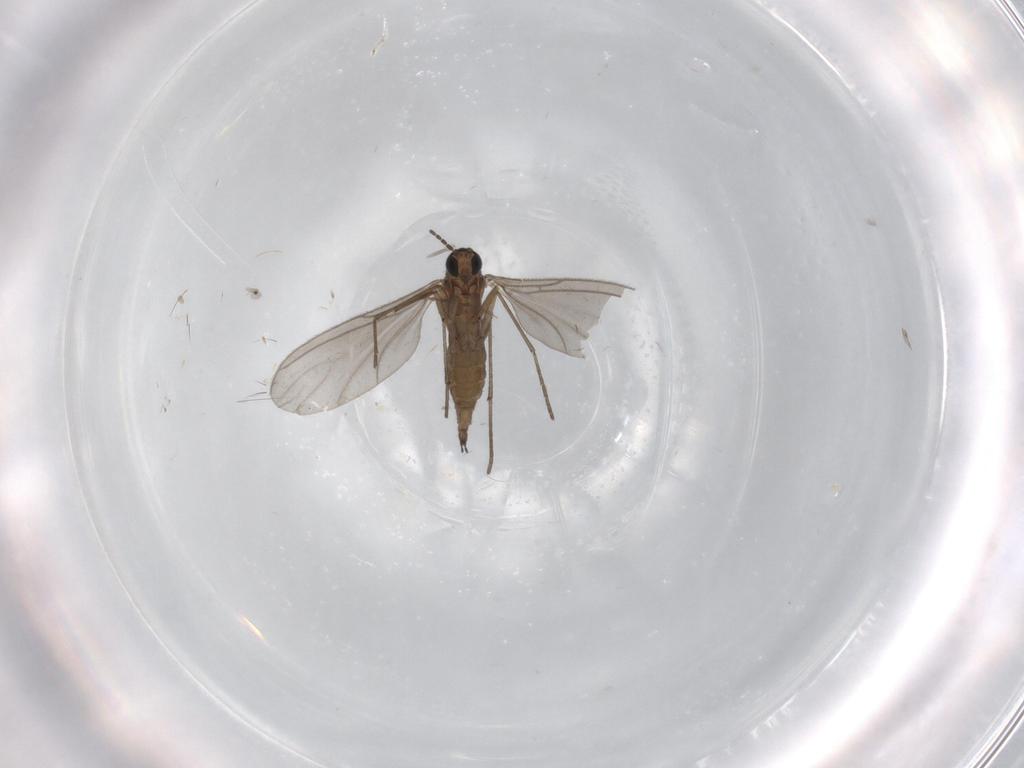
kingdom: Animalia
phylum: Arthropoda
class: Insecta
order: Diptera
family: Sciaridae
